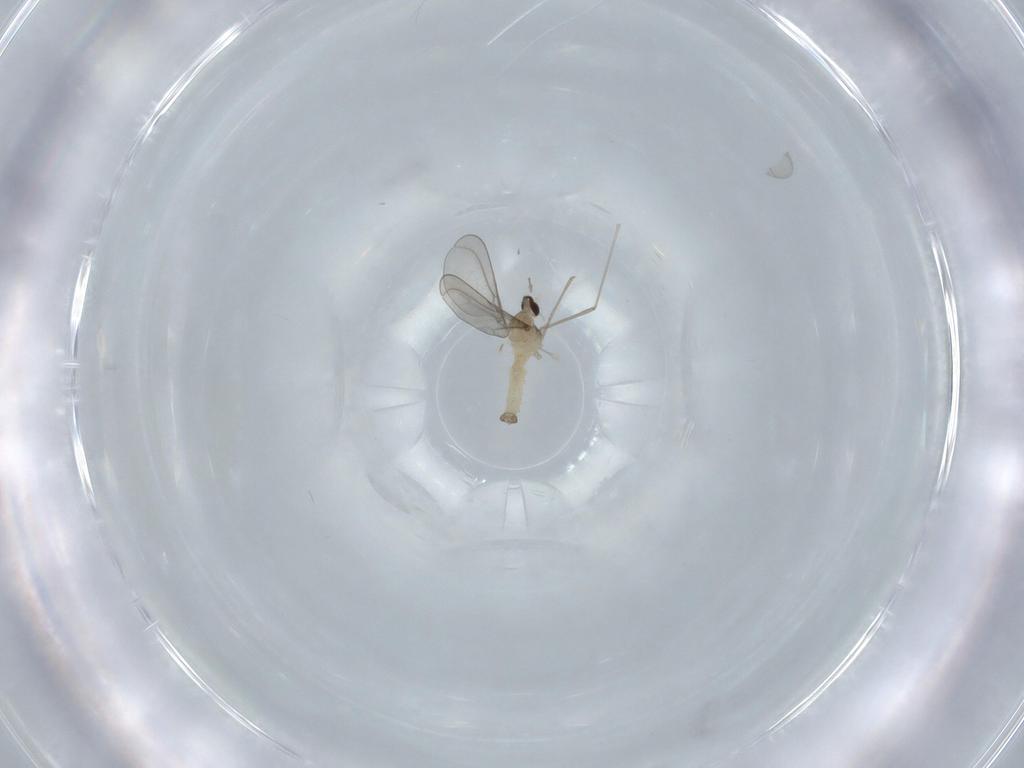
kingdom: Animalia
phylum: Arthropoda
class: Insecta
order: Diptera
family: Cecidomyiidae
